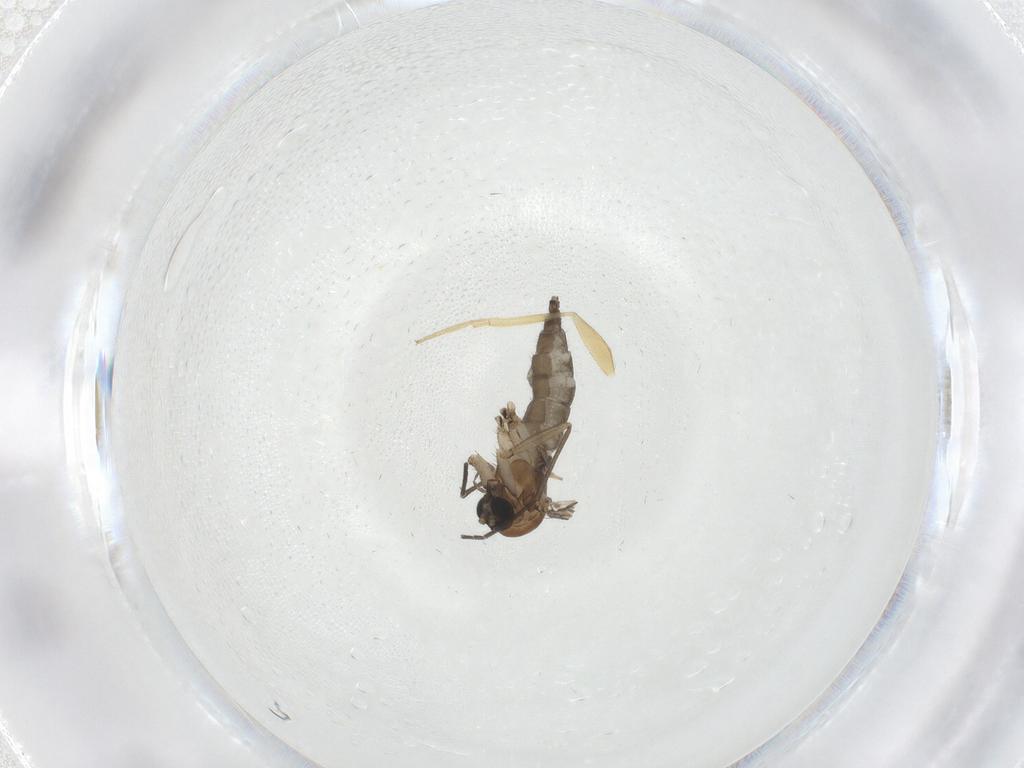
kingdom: Animalia
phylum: Arthropoda
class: Insecta
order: Diptera
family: Sciaridae
